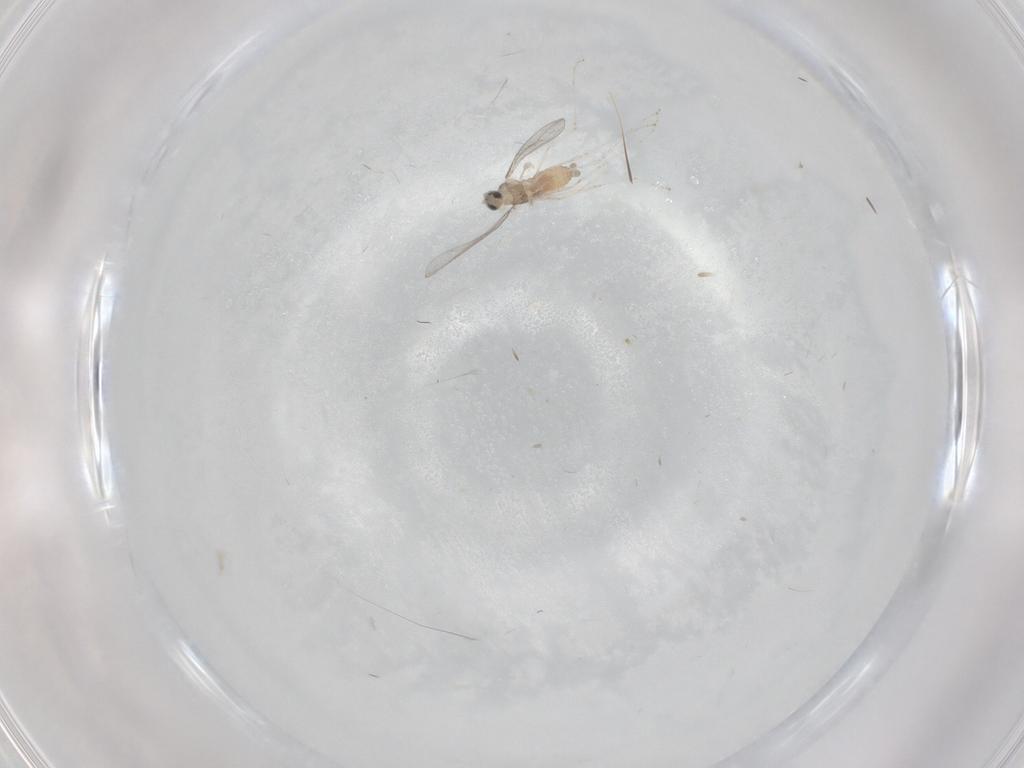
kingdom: Animalia
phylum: Arthropoda
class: Insecta
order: Diptera
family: Cecidomyiidae
